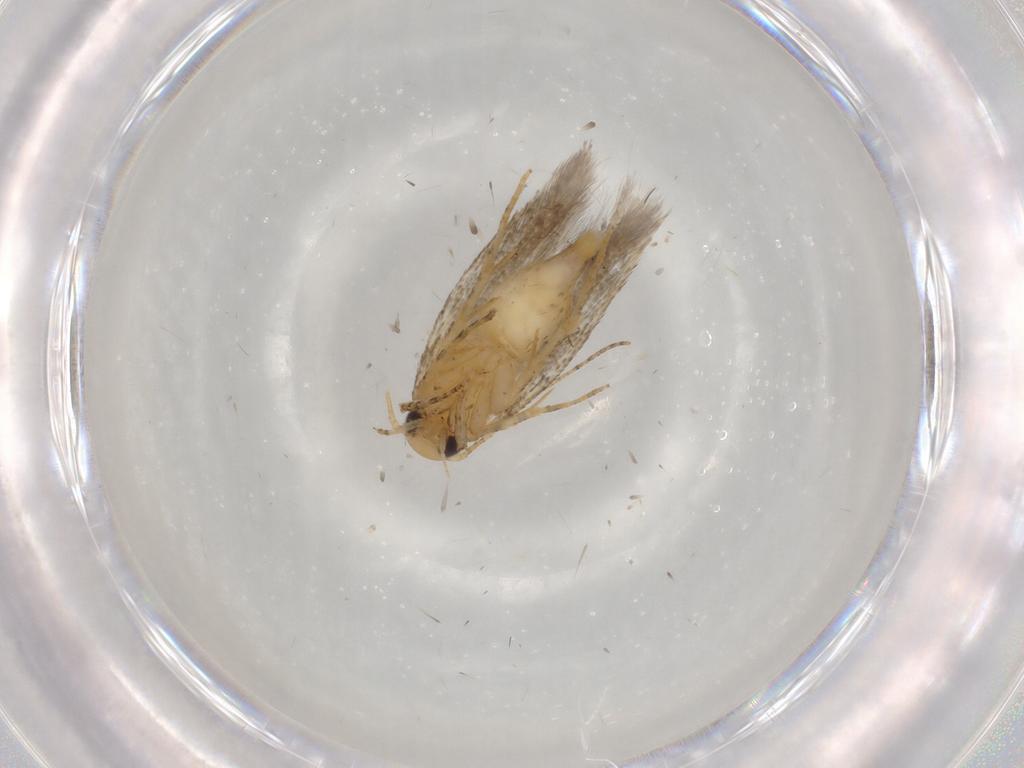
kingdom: Animalia
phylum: Arthropoda
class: Insecta
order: Lepidoptera
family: Gelechiidae
